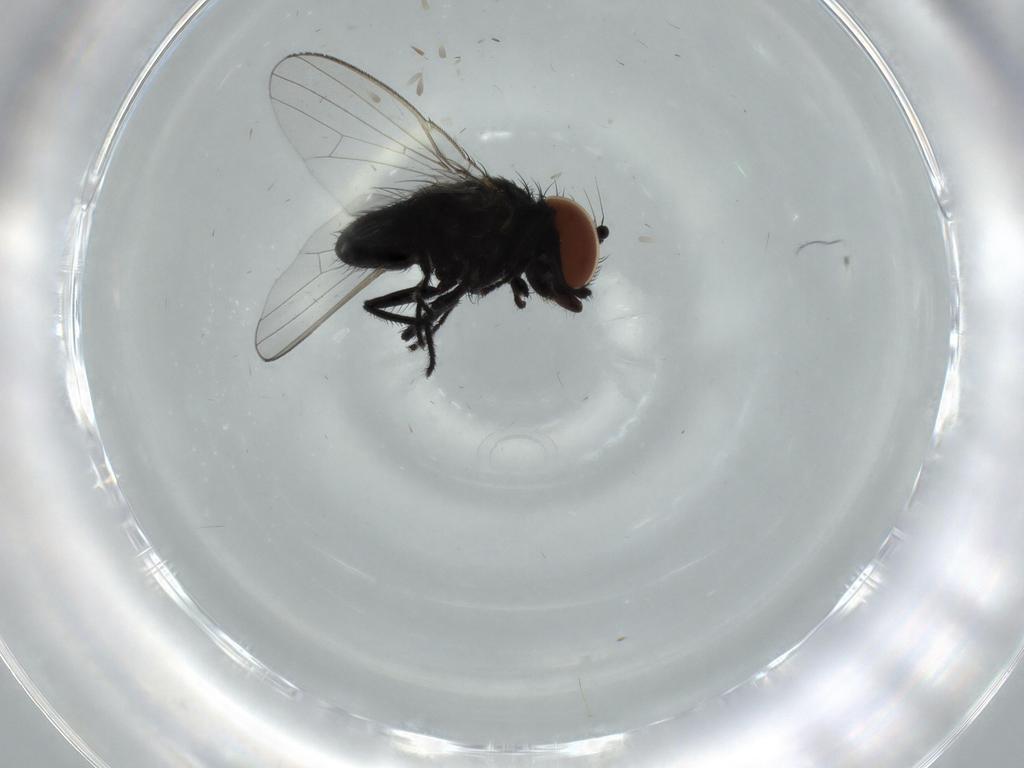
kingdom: Animalia
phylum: Arthropoda
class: Insecta
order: Diptera
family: Milichiidae
